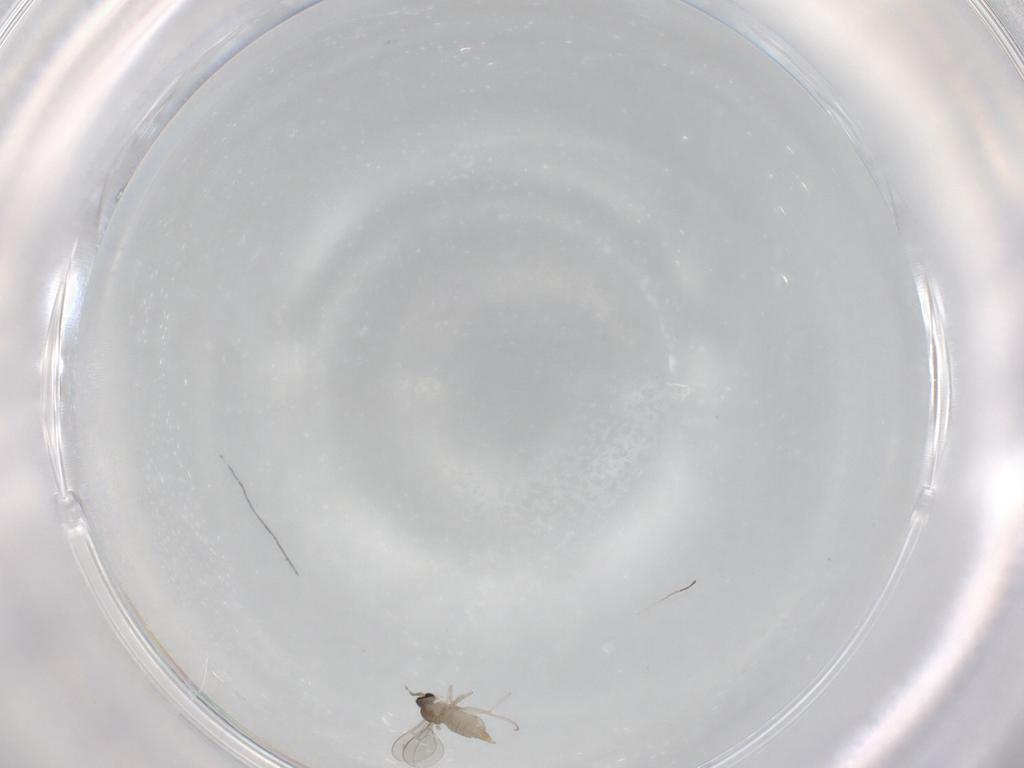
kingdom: Animalia
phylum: Arthropoda
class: Insecta
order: Diptera
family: Cecidomyiidae
